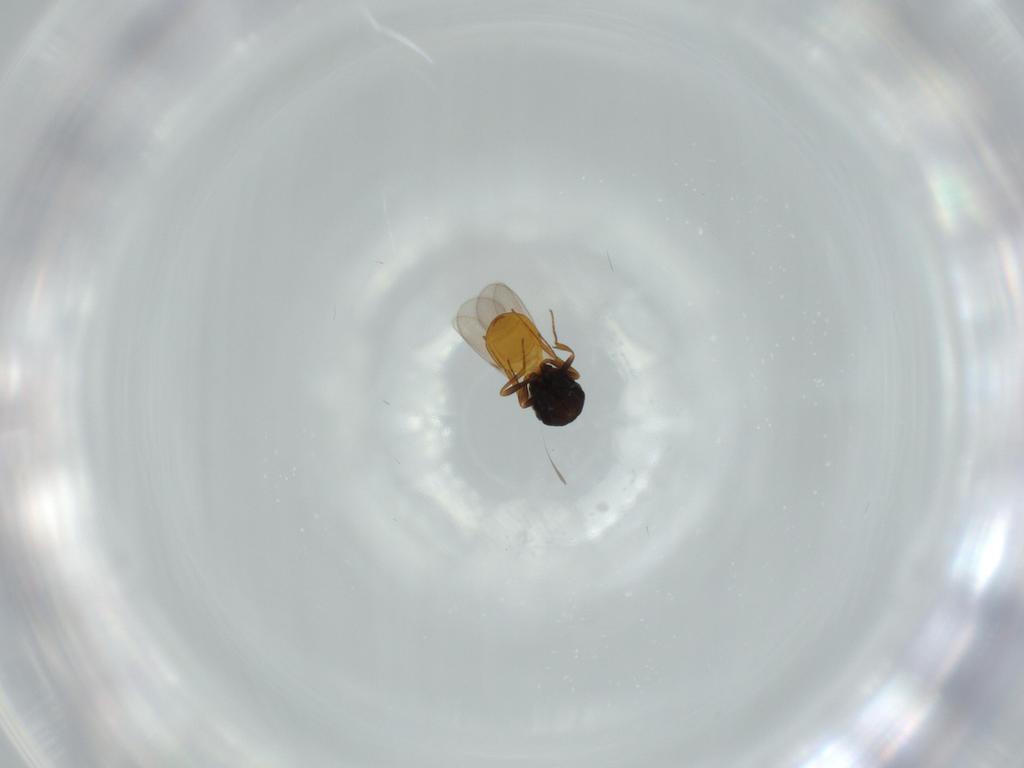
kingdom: Animalia
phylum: Arthropoda
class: Insecta
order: Hymenoptera
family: Scelionidae
